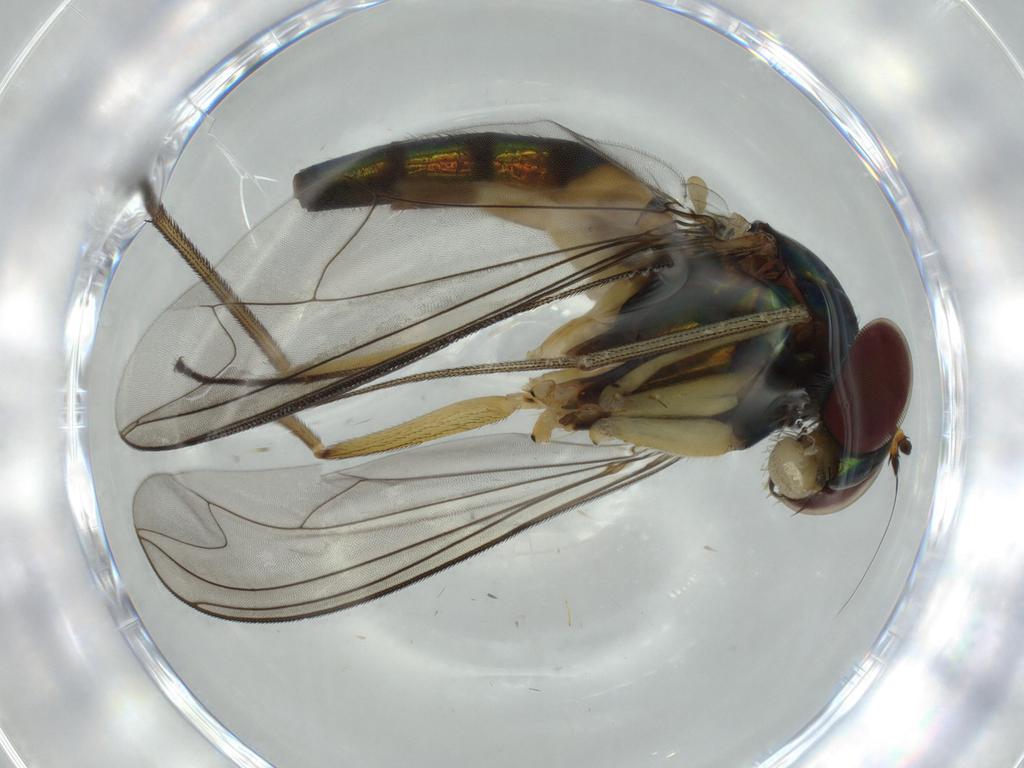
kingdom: Animalia
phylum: Arthropoda
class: Insecta
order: Diptera
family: Dolichopodidae
